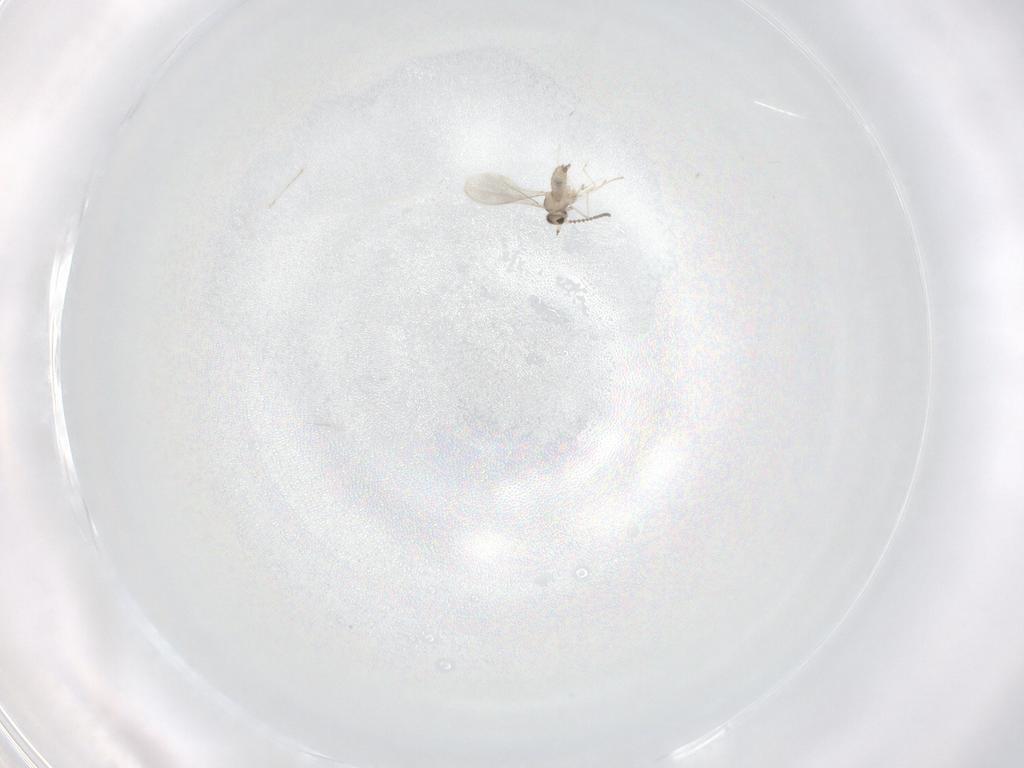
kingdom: Animalia
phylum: Arthropoda
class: Insecta
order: Diptera
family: Cecidomyiidae
